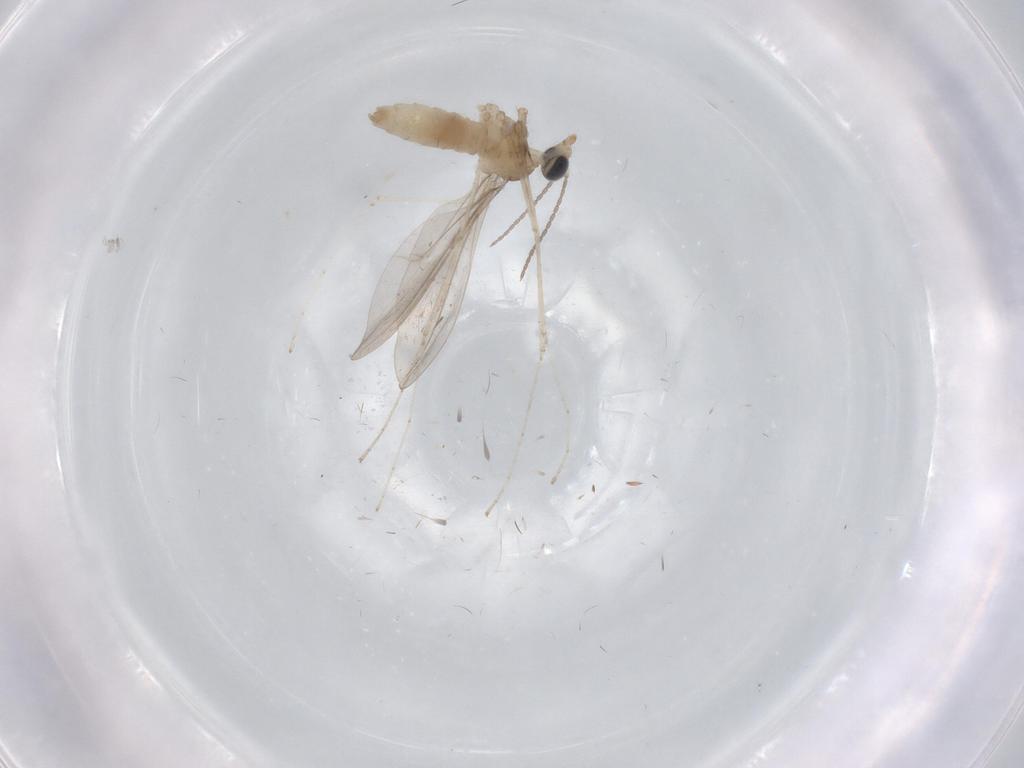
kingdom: Animalia
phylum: Arthropoda
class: Insecta
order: Diptera
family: Cecidomyiidae
